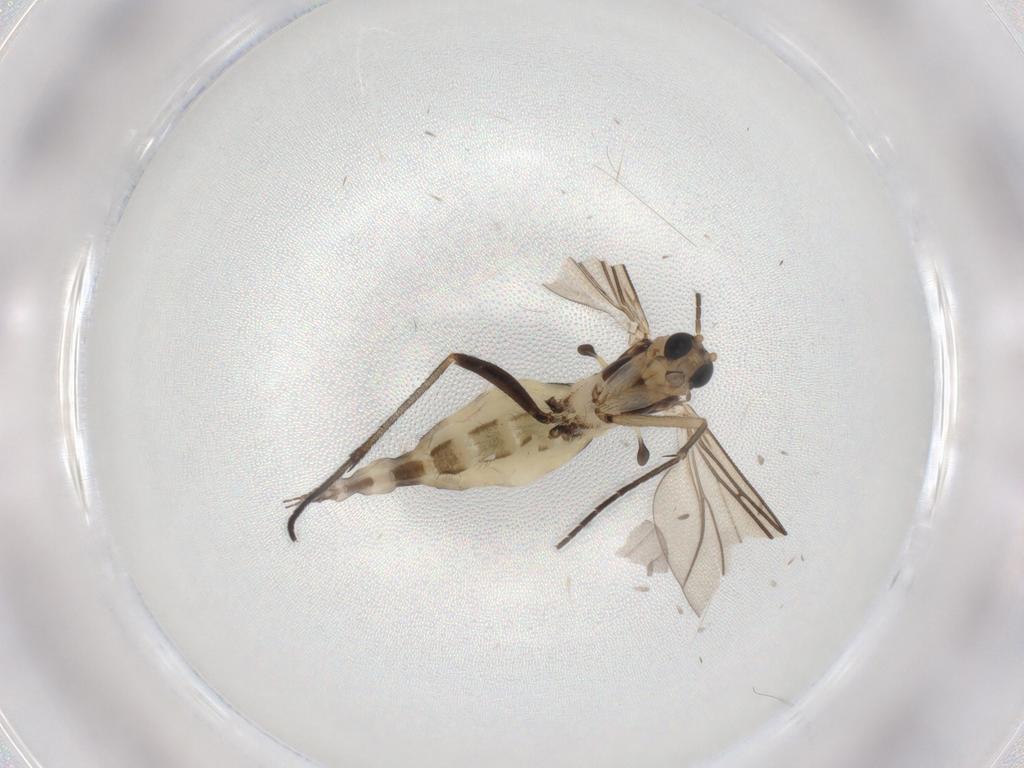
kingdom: Animalia
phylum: Arthropoda
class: Insecta
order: Diptera
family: Sciaridae
